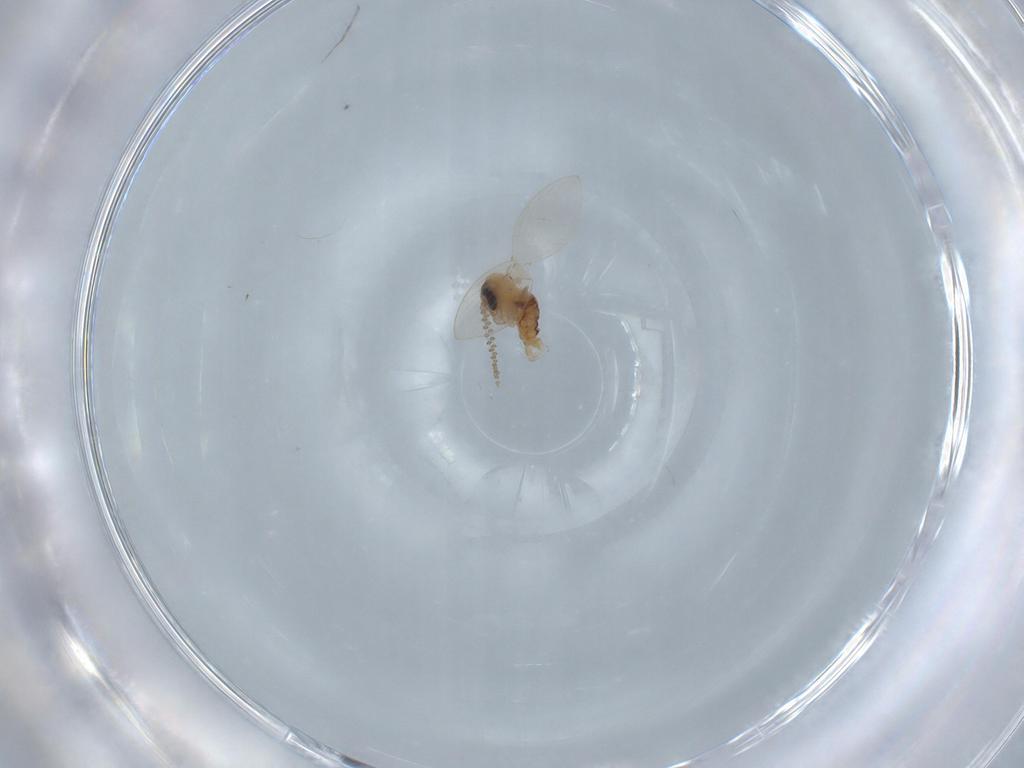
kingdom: Animalia
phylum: Arthropoda
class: Insecta
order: Diptera
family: Psychodidae
